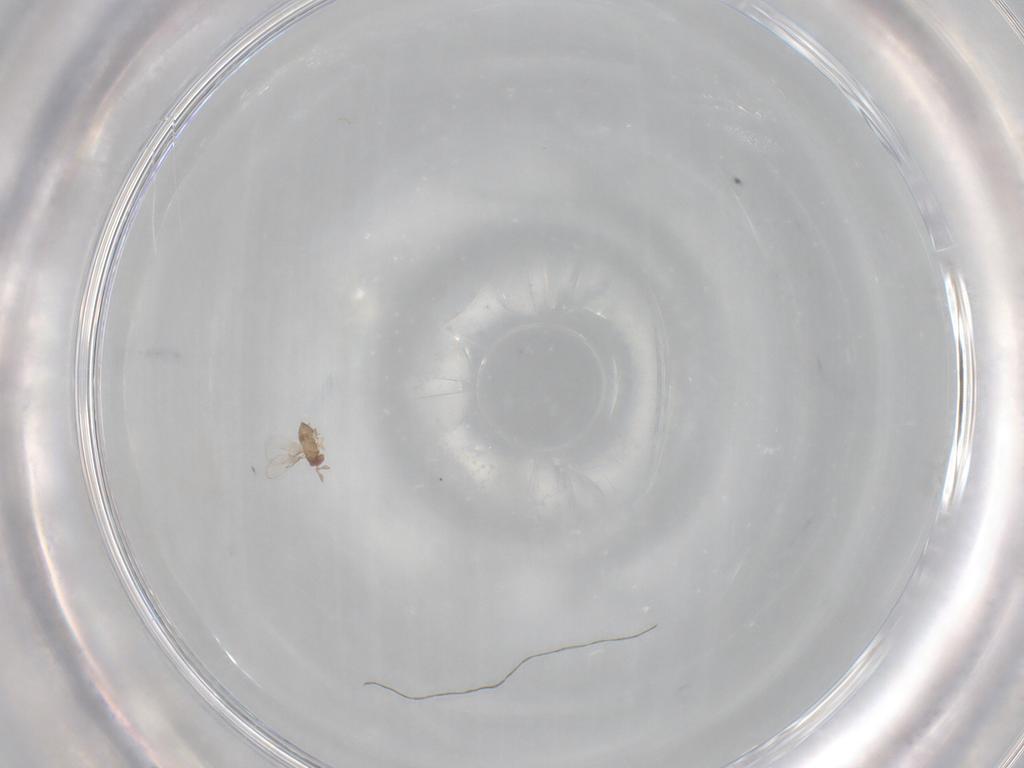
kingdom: Animalia
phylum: Arthropoda
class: Insecta
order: Hymenoptera
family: Trichogrammatidae
